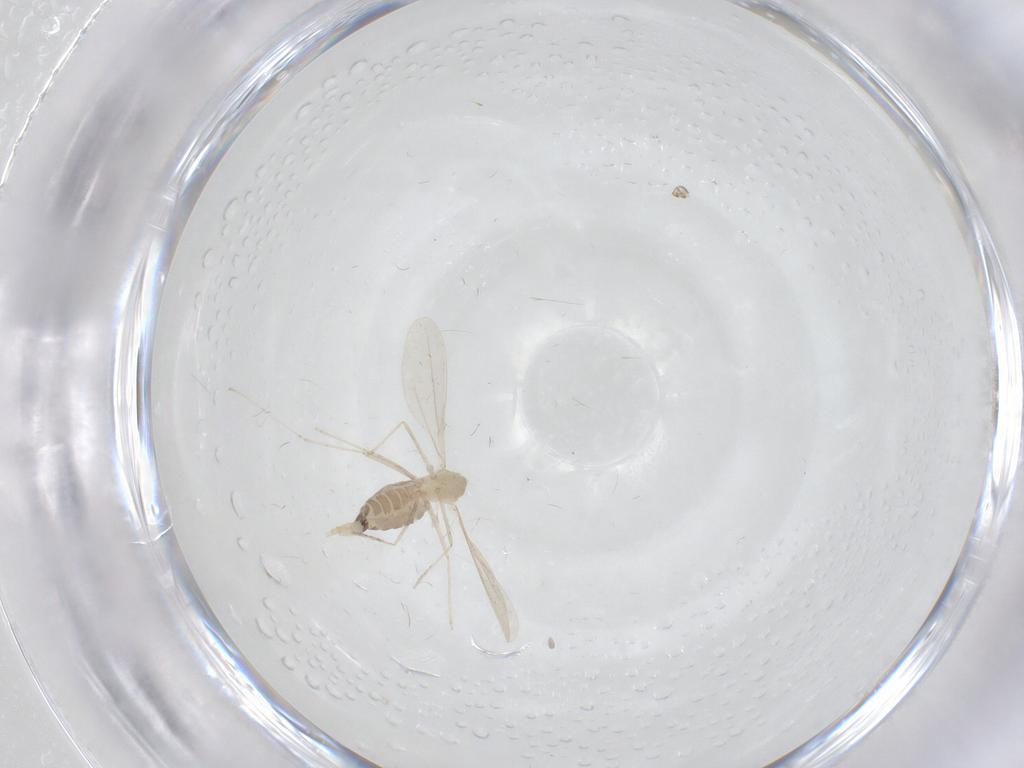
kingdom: Animalia
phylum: Arthropoda
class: Insecta
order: Diptera
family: Cecidomyiidae
